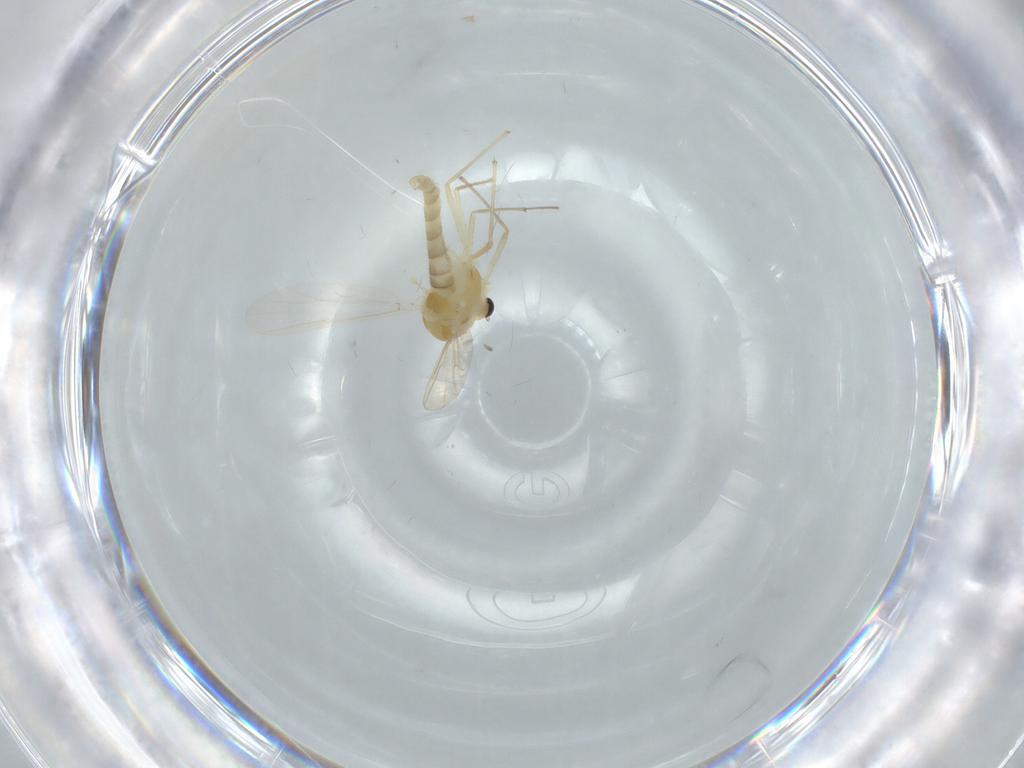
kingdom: Animalia
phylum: Arthropoda
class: Insecta
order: Diptera
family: Chironomidae
